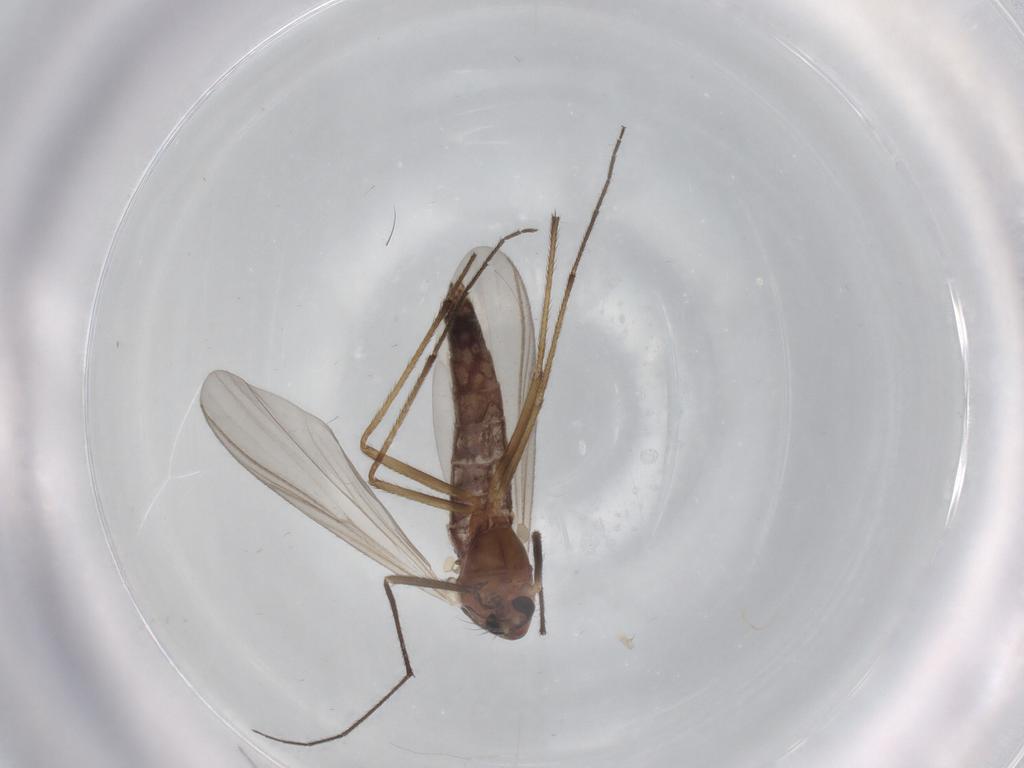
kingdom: Animalia
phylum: Arthropoda
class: Insecta
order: Diptera
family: Chironomidae
